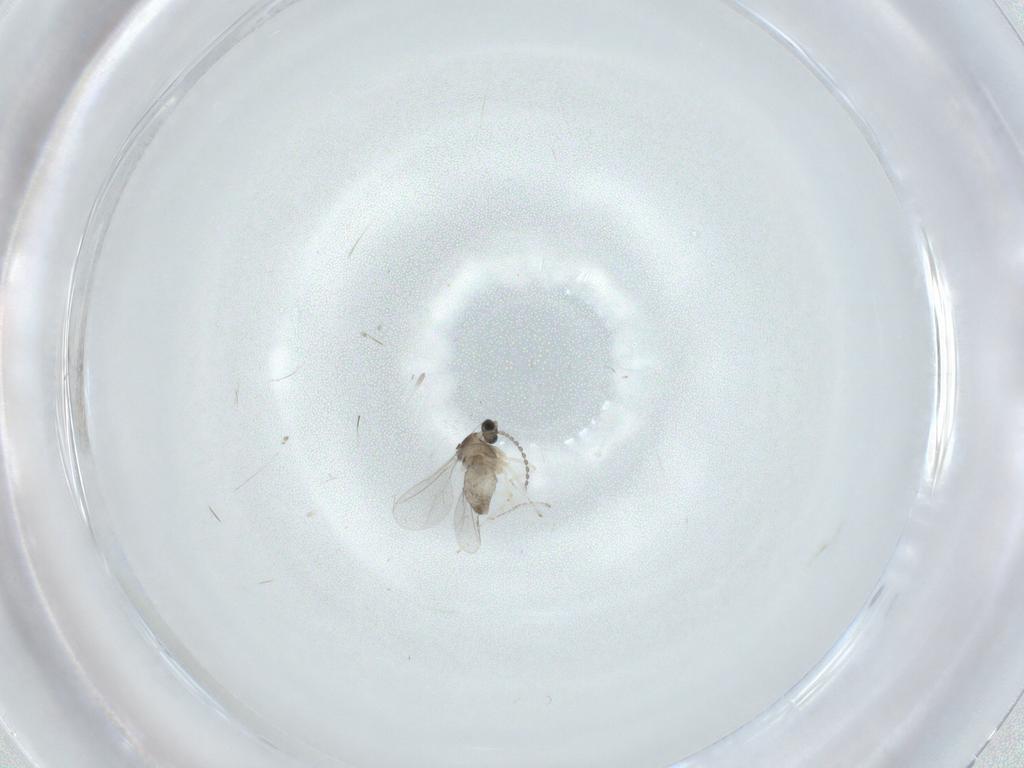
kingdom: Animalia
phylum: Arthropoda
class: Insecta
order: Diptera
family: Cecidomyiidae
